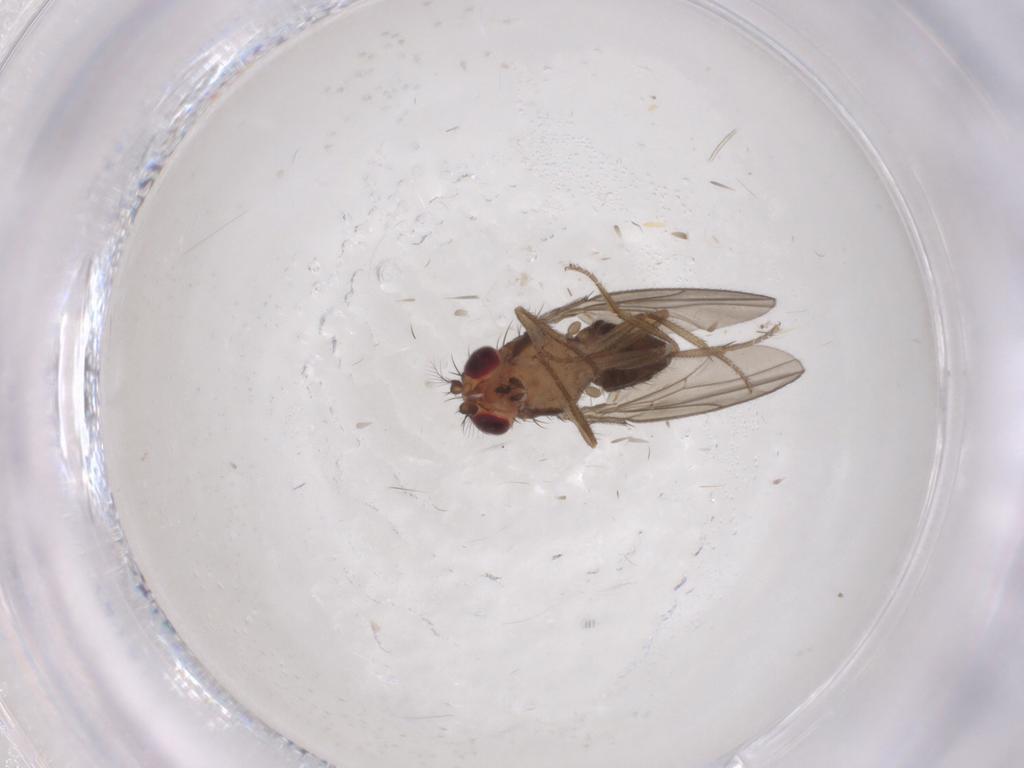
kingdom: Animalia
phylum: Arthropoda
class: Insecta
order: Diptera
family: Drosophilidae
